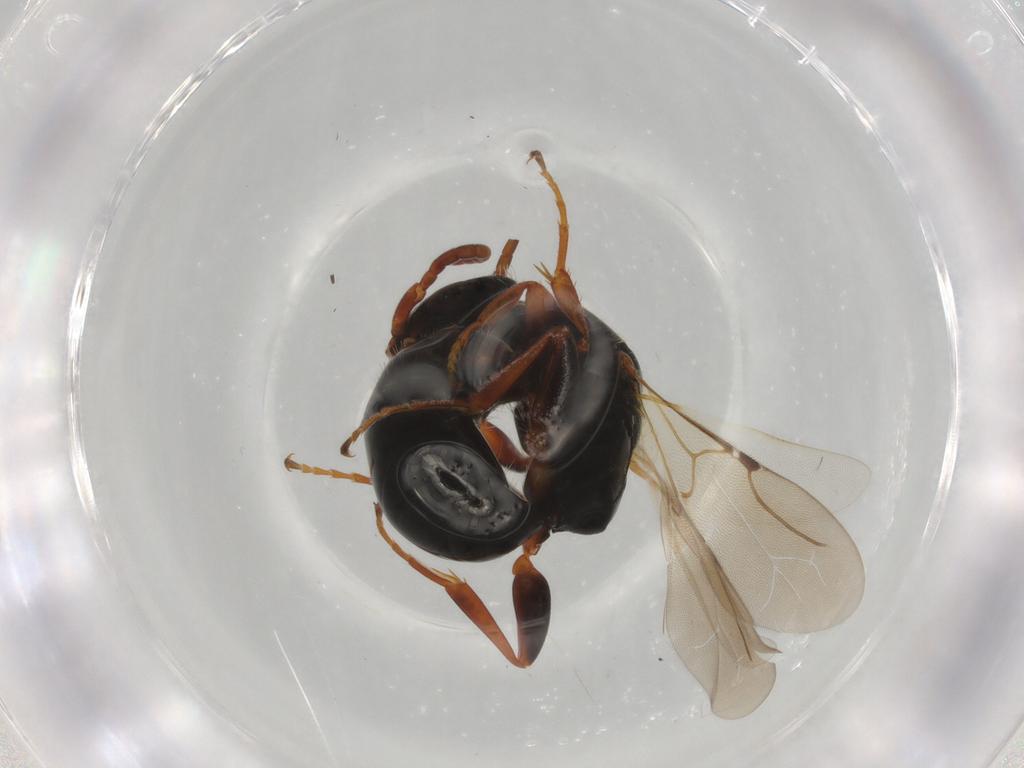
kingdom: Animalia
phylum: Arthropoda
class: Insecta
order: Hymenoptera
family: Bethylidae
